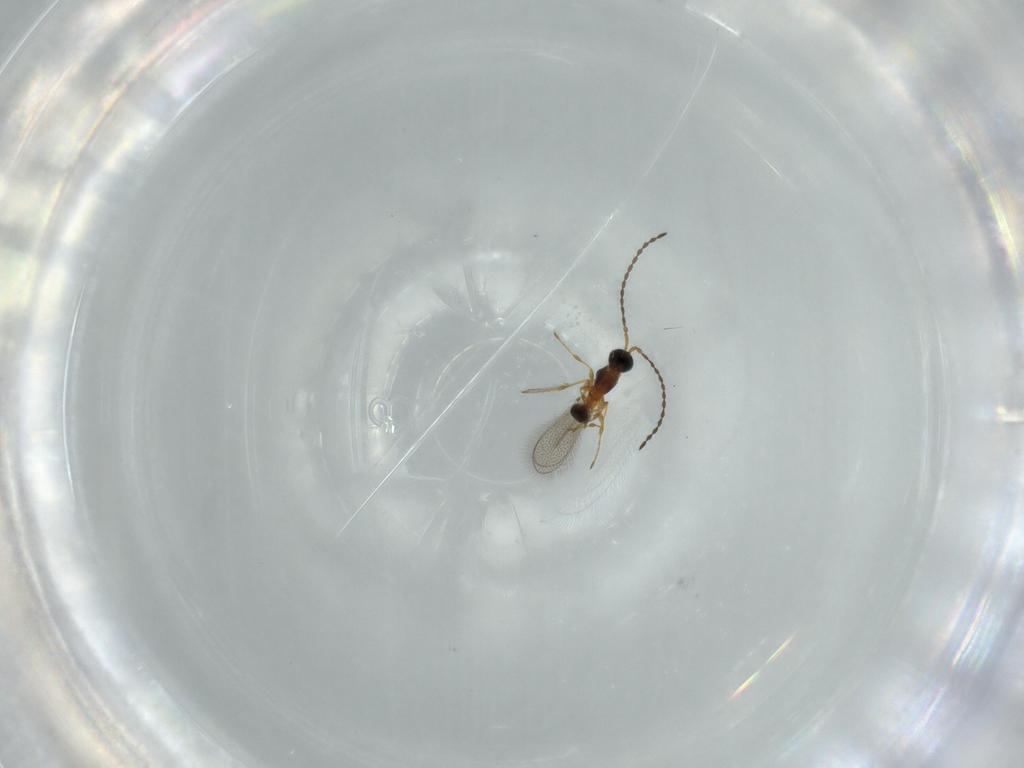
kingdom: Animalia
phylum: Arthropoda
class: Insecta
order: Hymenoptera
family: Trichogrammatidae
